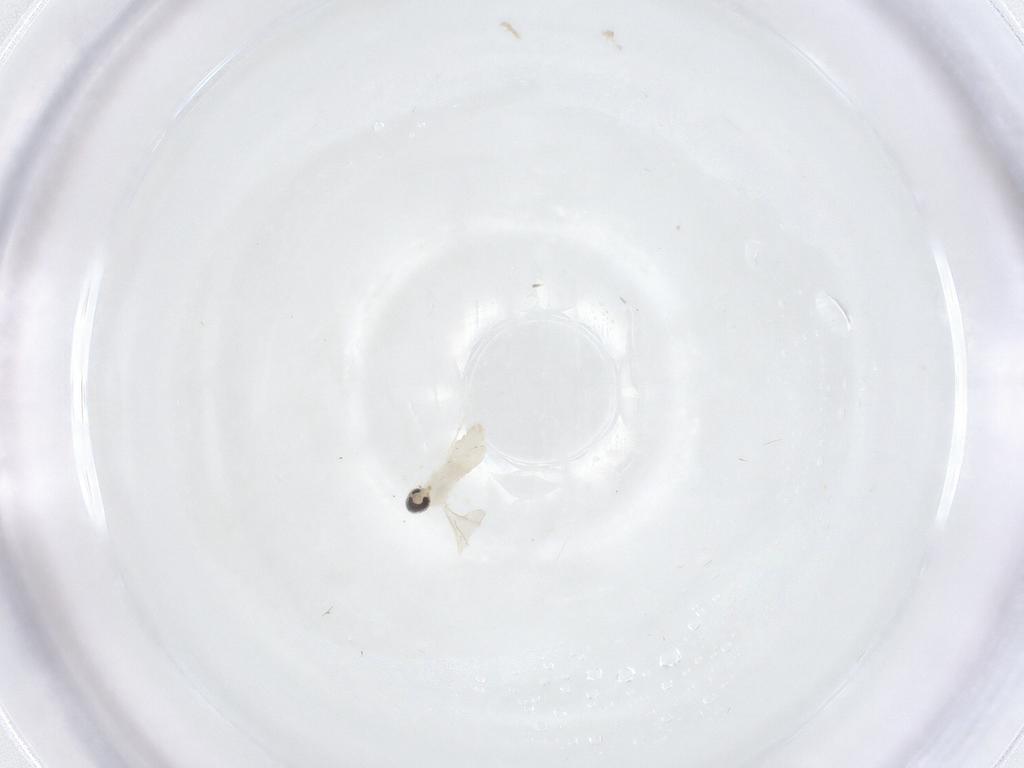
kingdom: Animalia
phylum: Arthropoda
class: Insecta
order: Diptera
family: Cecidomyiidae
